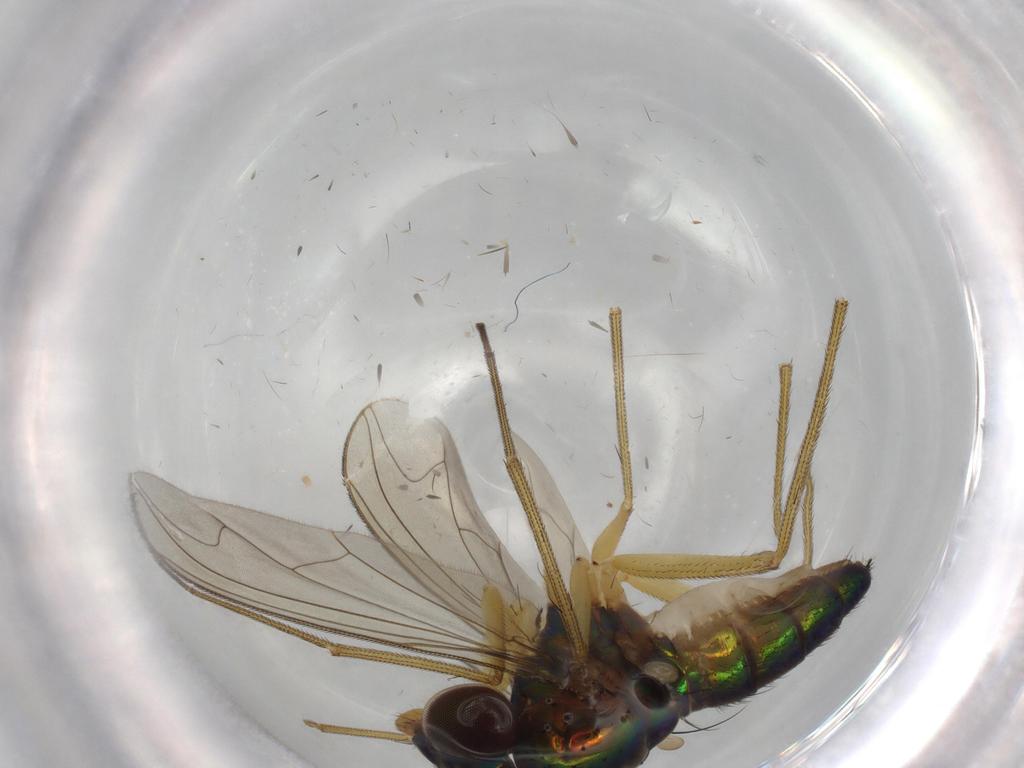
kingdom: Animalia
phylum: Arthropoda
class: Insecta
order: Diptera
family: Dolichopodidae
